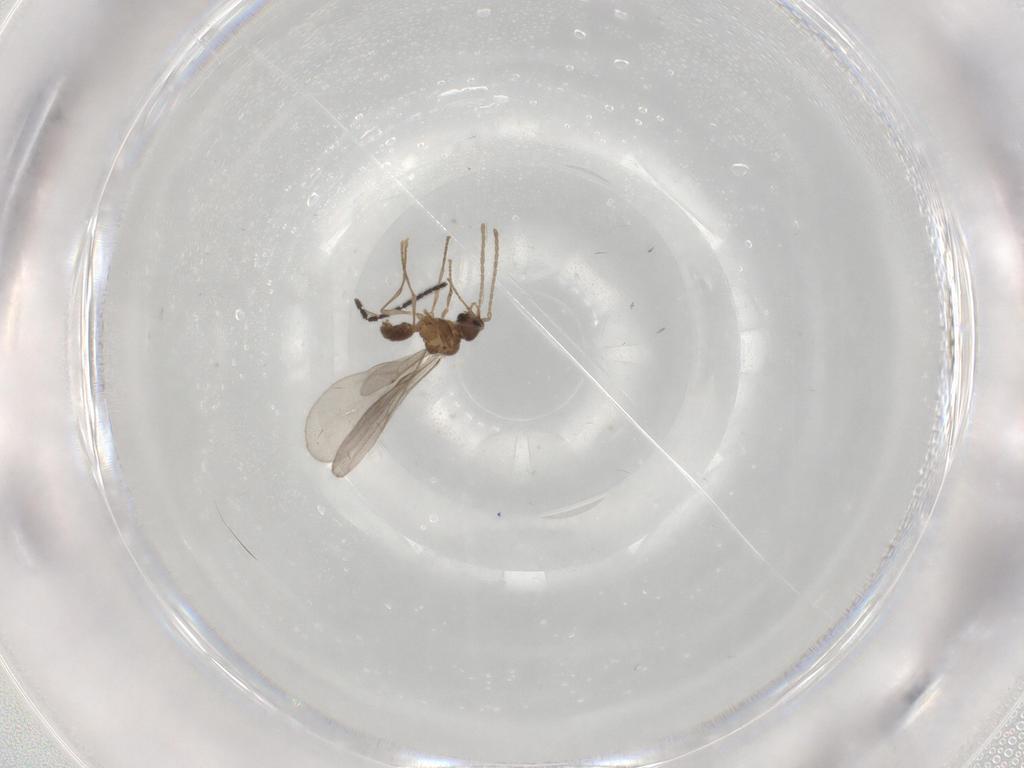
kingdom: Animalia
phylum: Arthropoda
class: Insecta
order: Hymenoptera
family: Formicidae
